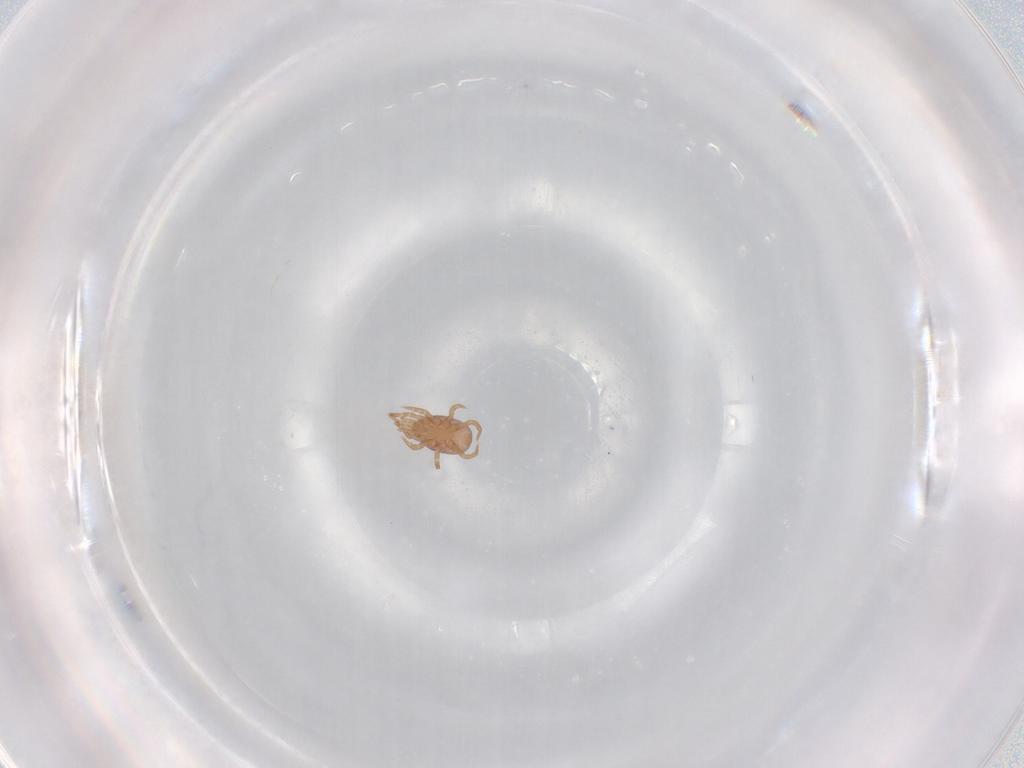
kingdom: Animalia
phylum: Arthropoda
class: Arachnida
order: Mesostigmata
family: Eviphididae
